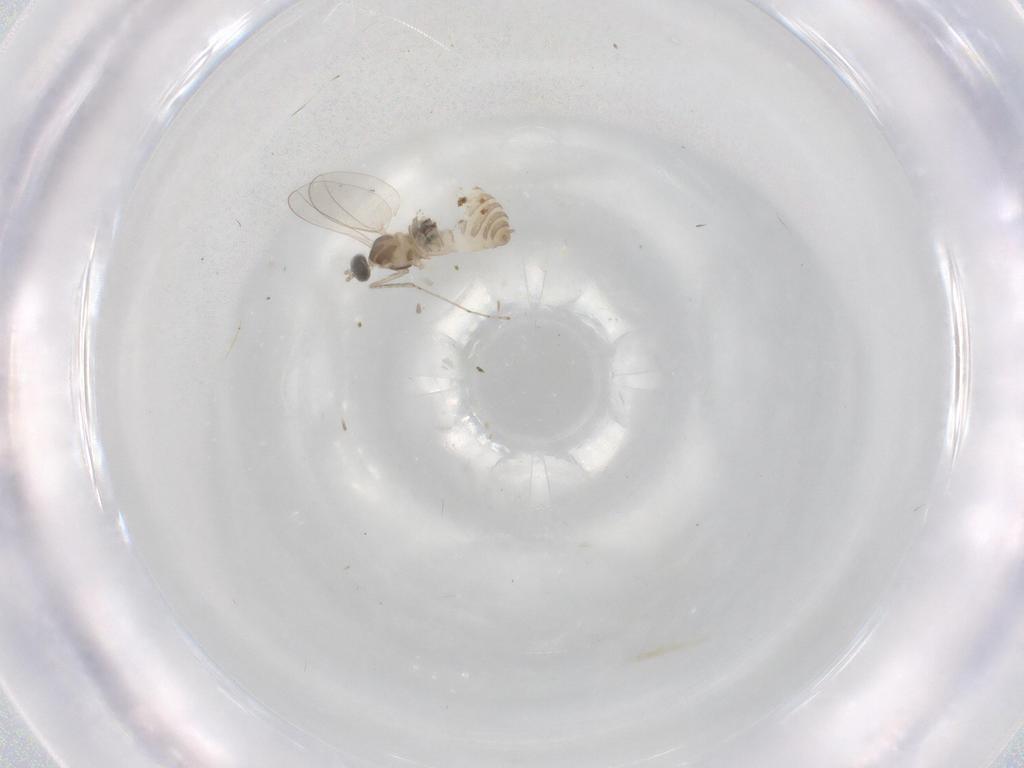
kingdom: Animalia
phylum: Arthropoda
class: Insecta
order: Diptera
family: Cecidomyiidae
